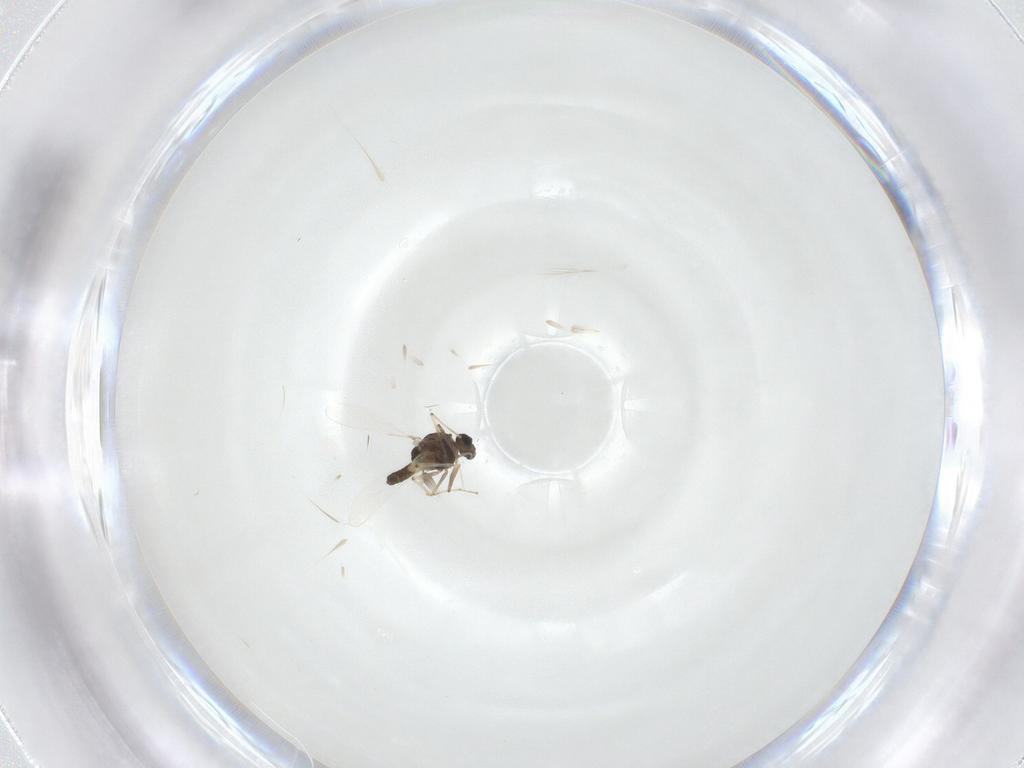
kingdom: Animalia
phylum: Arthropoda
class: Insecta
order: Diptera
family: Chironomidae
